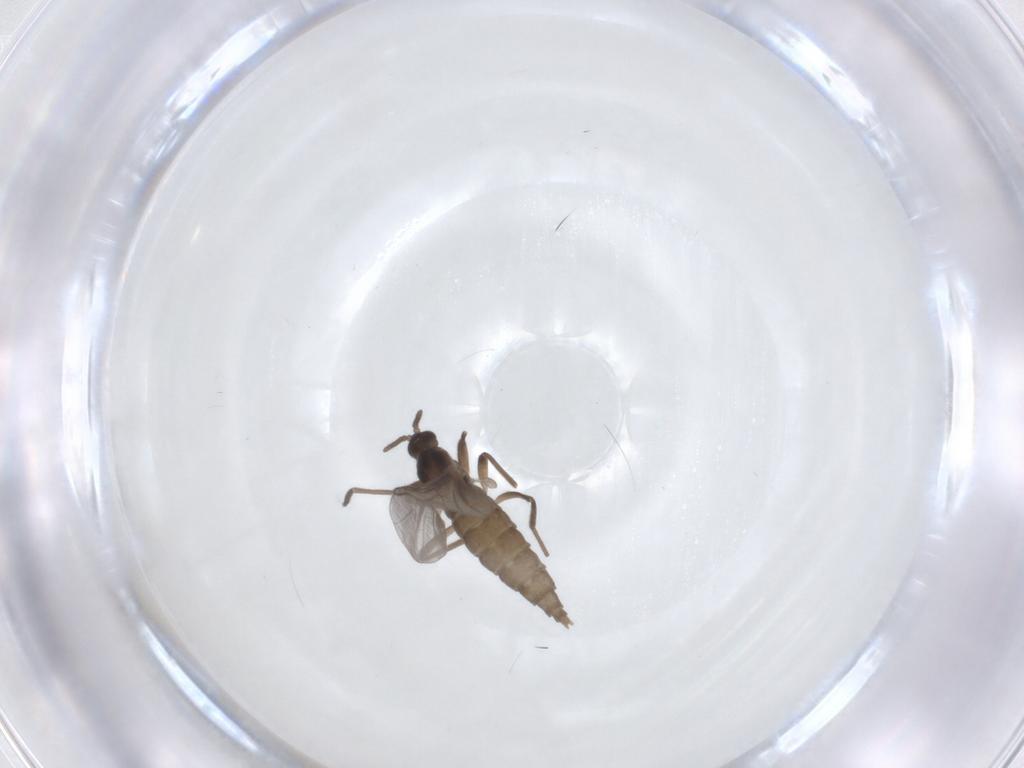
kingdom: Animalia
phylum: Arthropoda
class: Insecta
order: Diptera
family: Cecidomyiidae
